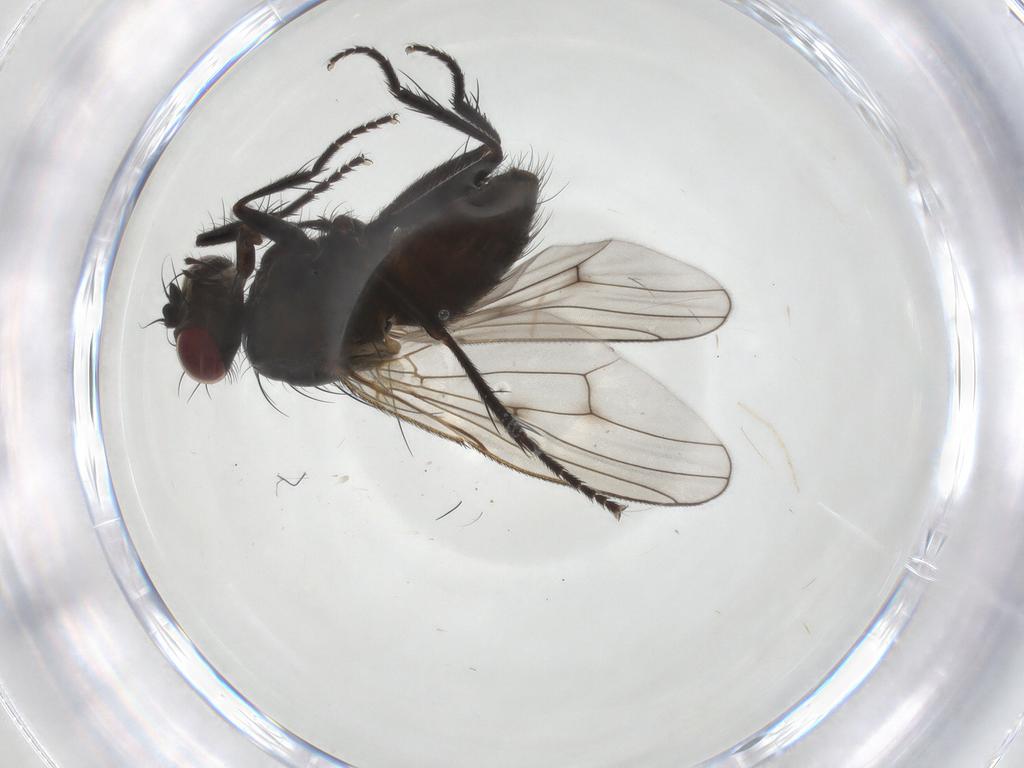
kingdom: Animalia
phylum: Arthropoda
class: Insecta
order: Diptera
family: Muscidae
